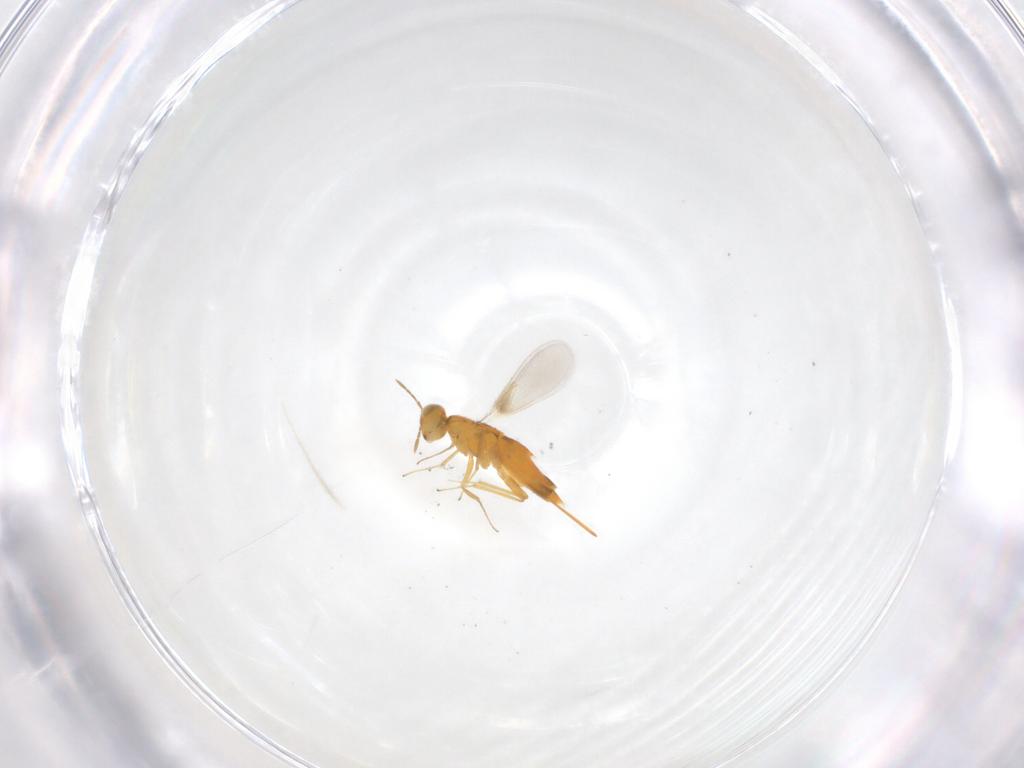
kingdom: Animalia
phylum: Arthropoda
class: Insecta
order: Hymenoptera
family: Aphelinidae
